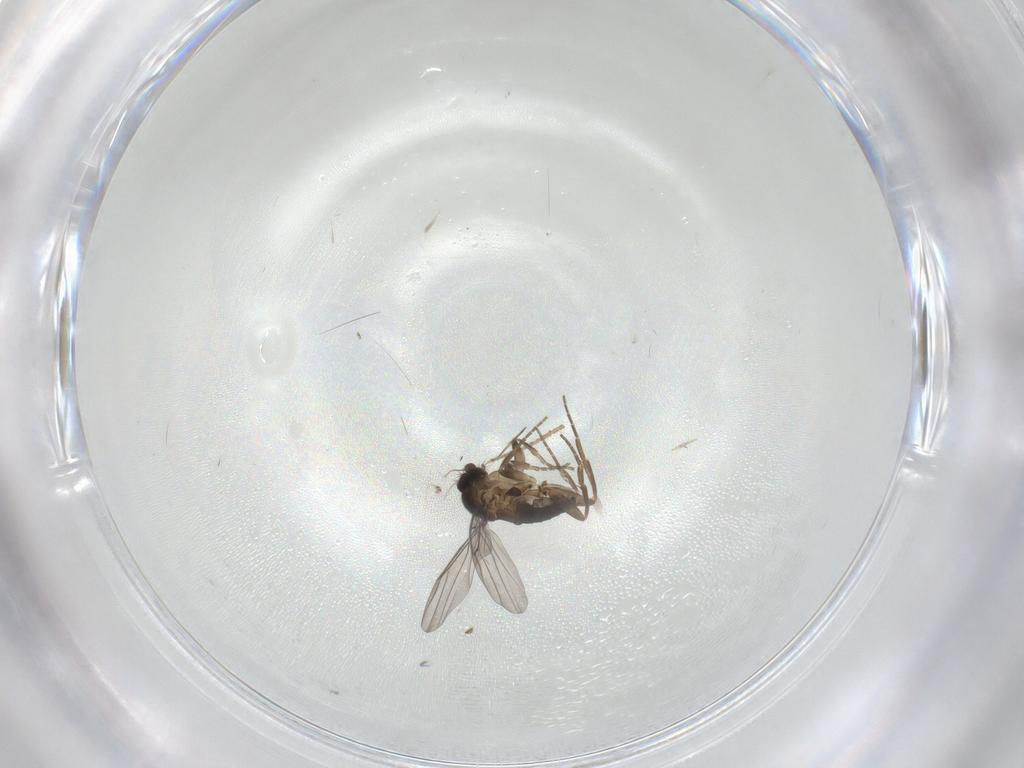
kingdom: Animalia
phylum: Arthropoda
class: Insecta
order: Diptera
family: Phoridae
